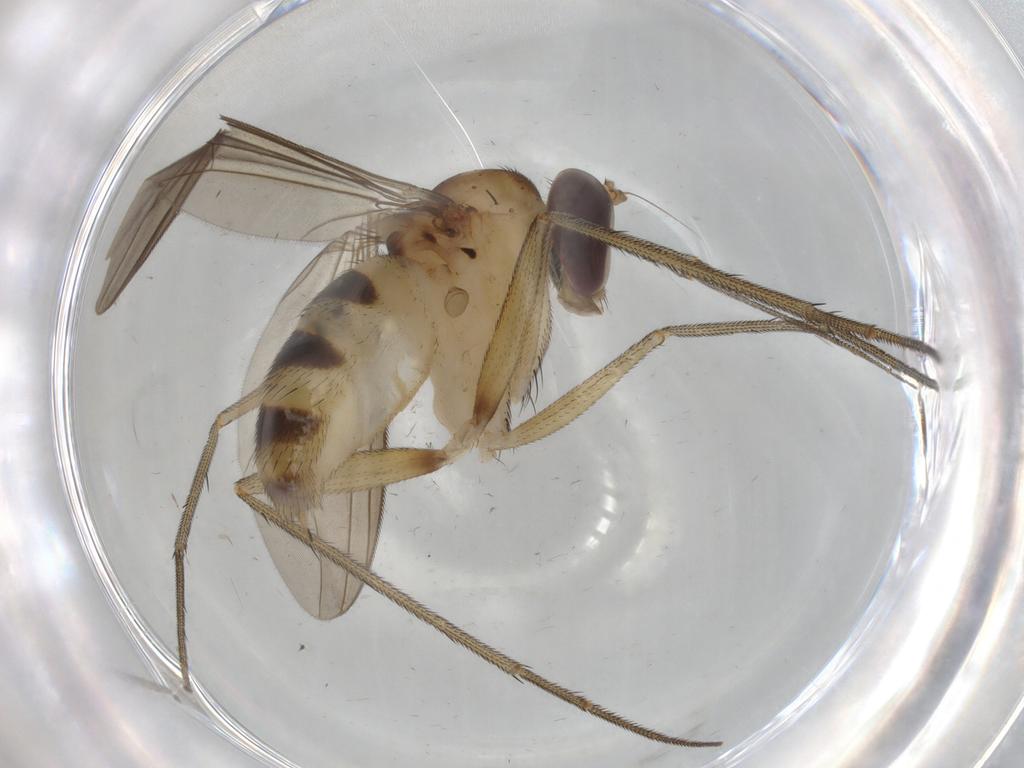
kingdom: Animalia
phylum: Arthropoda
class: Insecta
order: Diptera
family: Dolichopodidae
